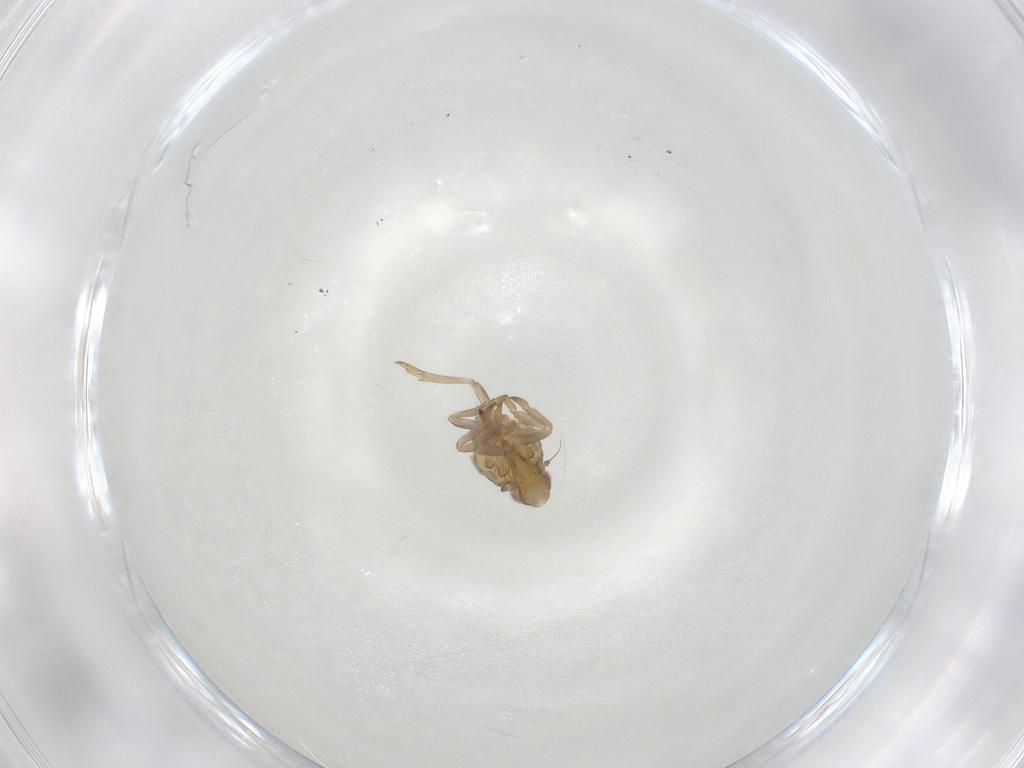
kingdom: Animalia
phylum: Arthropoda
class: Insecta
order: Hemiptera
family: Tropiduchidae
